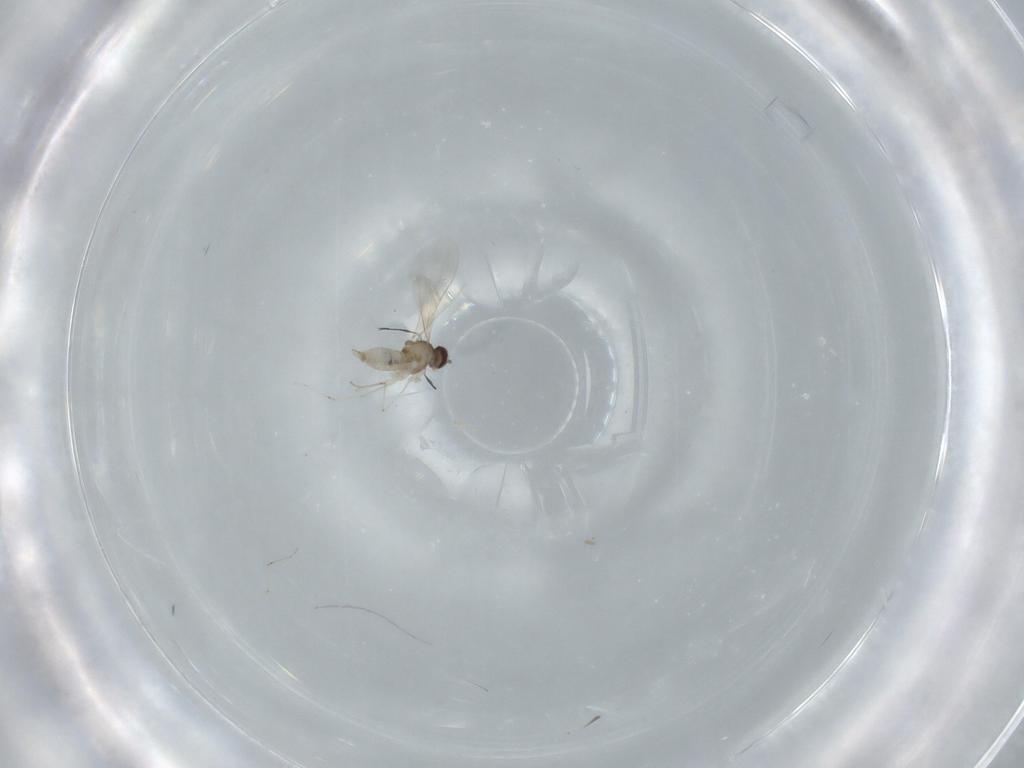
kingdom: Animalia
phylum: Arthropoda
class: Insecta
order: Diptera
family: Cecidomyiidae
